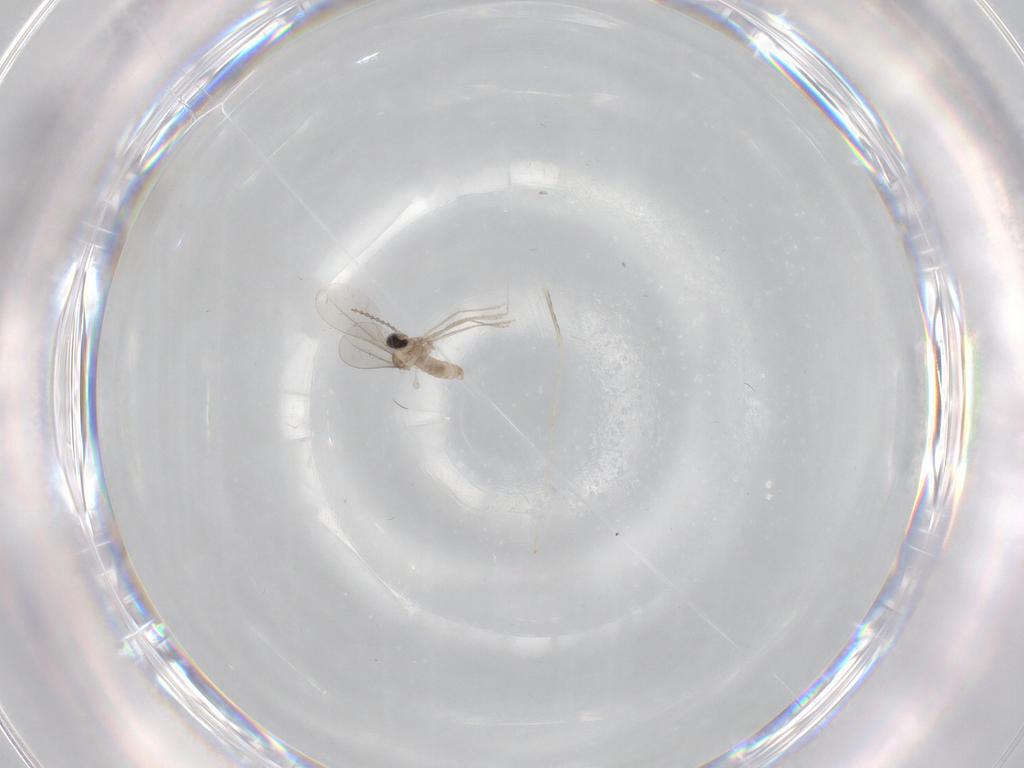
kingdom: Animalia
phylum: Arthropoda
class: Insecta
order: Diptera
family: Cecidomyiidae
